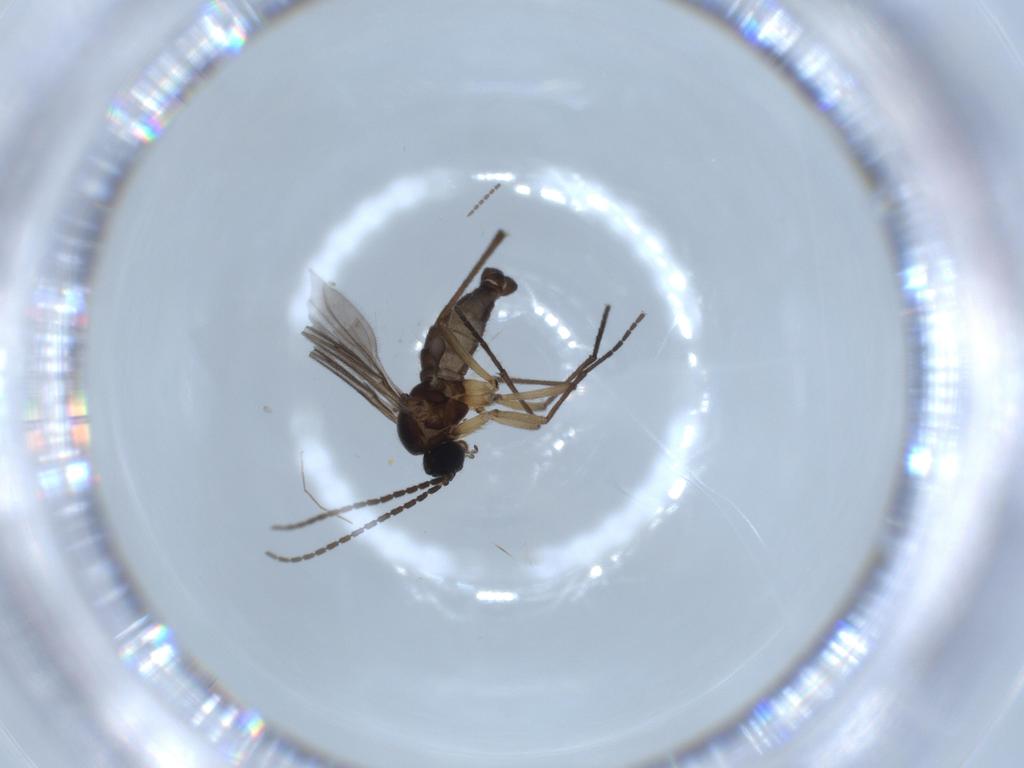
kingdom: Animalia
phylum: Arthropoda
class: Insecta
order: Diptera
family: Sciaridae
